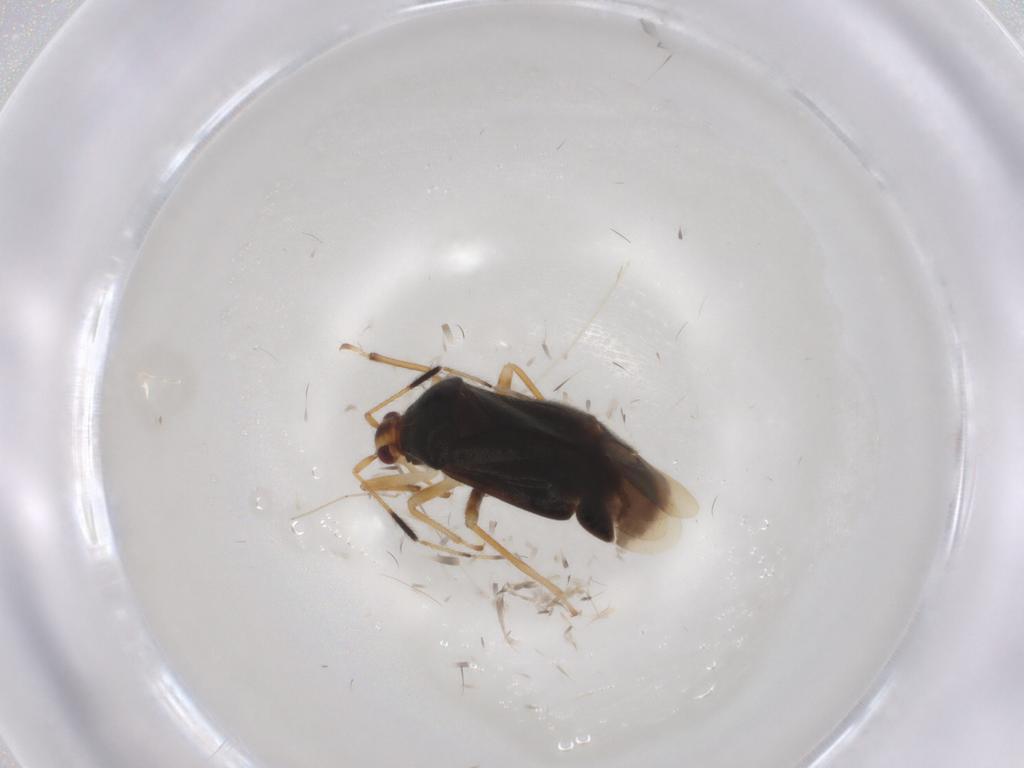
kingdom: Animalia
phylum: Arthropoda
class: Insecta
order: Hemiptera
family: Miridae
